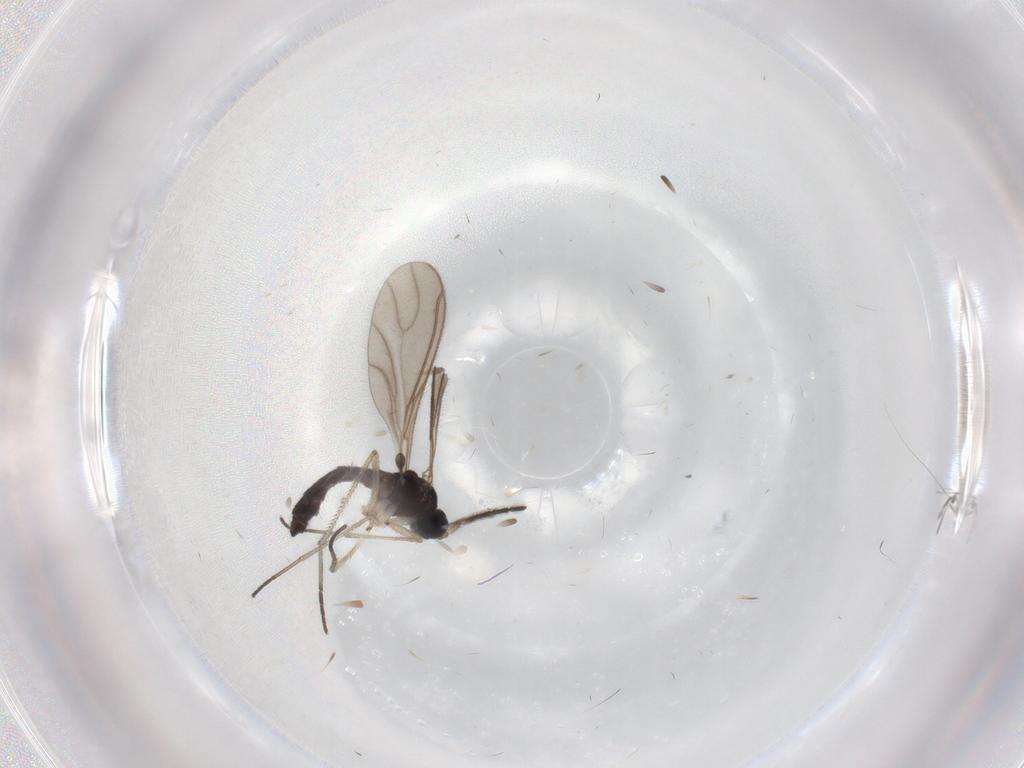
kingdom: Animalia
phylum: Arthropoda
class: Insecta
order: Diptera
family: Sciaridae
